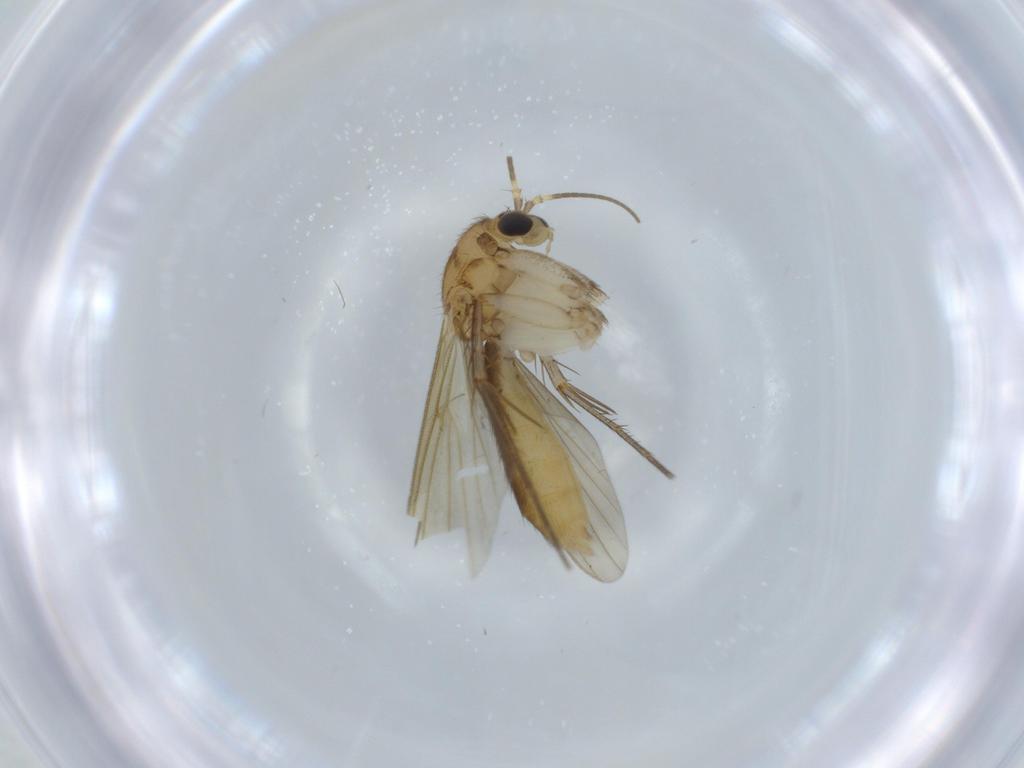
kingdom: Animalia
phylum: Arthropoda
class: Insecta
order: Diptera
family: Mycetophilidae
